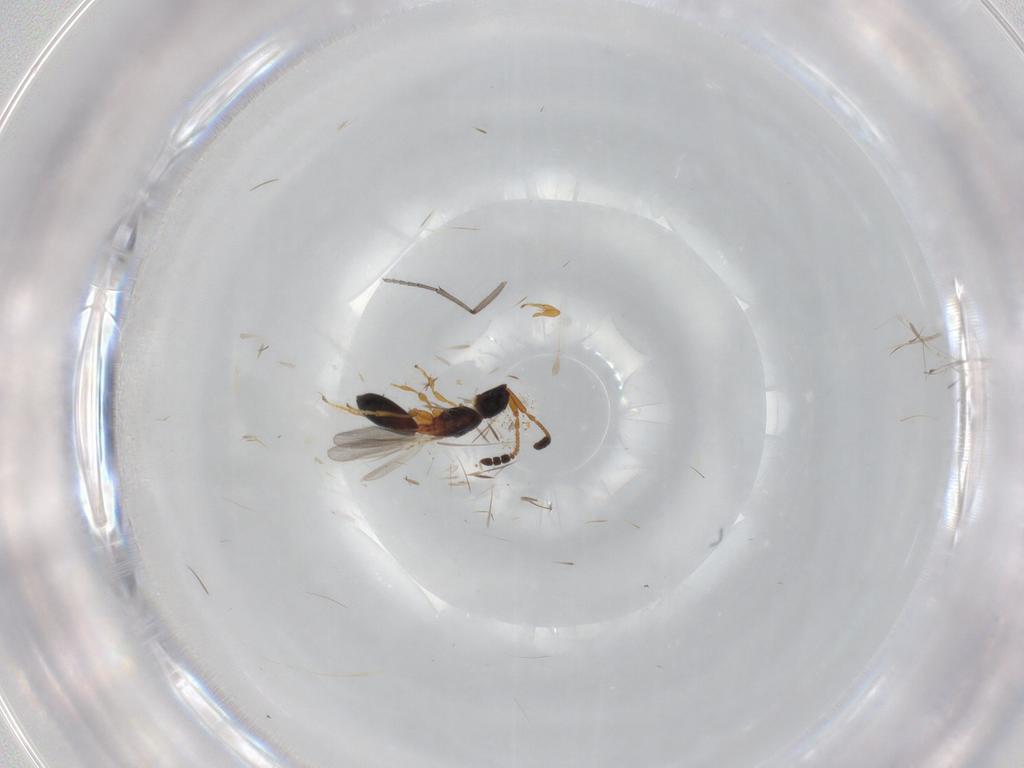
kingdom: Animalia
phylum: Arthropoda
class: Insecta
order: Hymenoptera
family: Diapriidae
